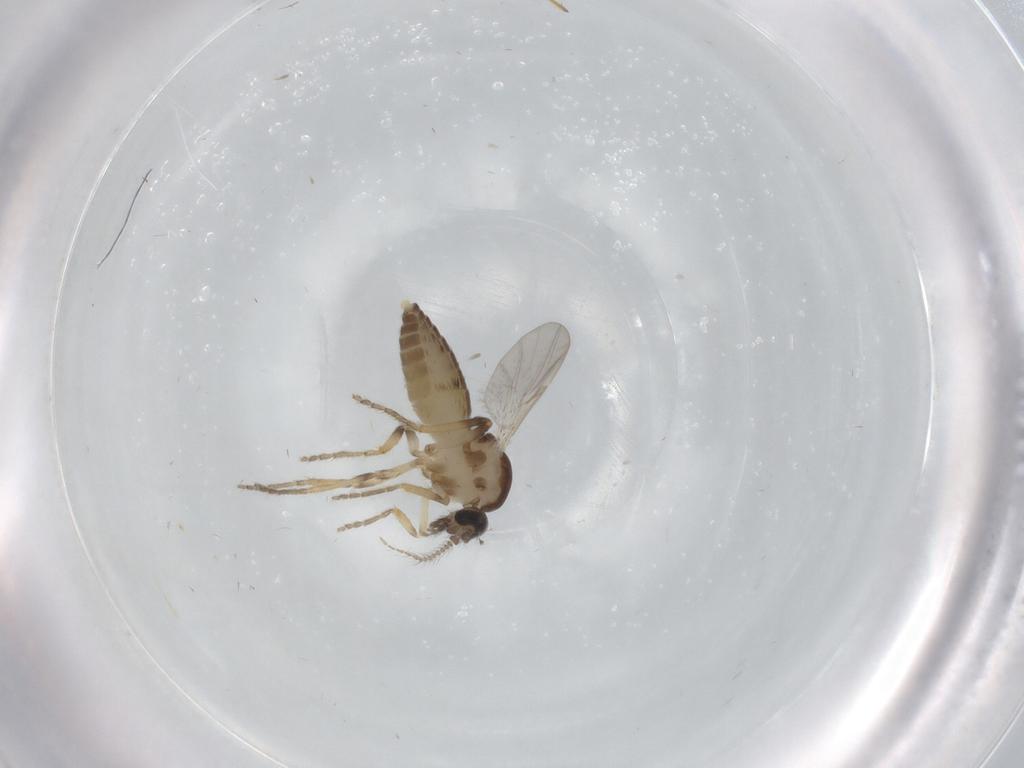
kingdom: Animalia
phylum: Arthropoda
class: Insecta
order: Diptera
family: Ceratopogonidae
